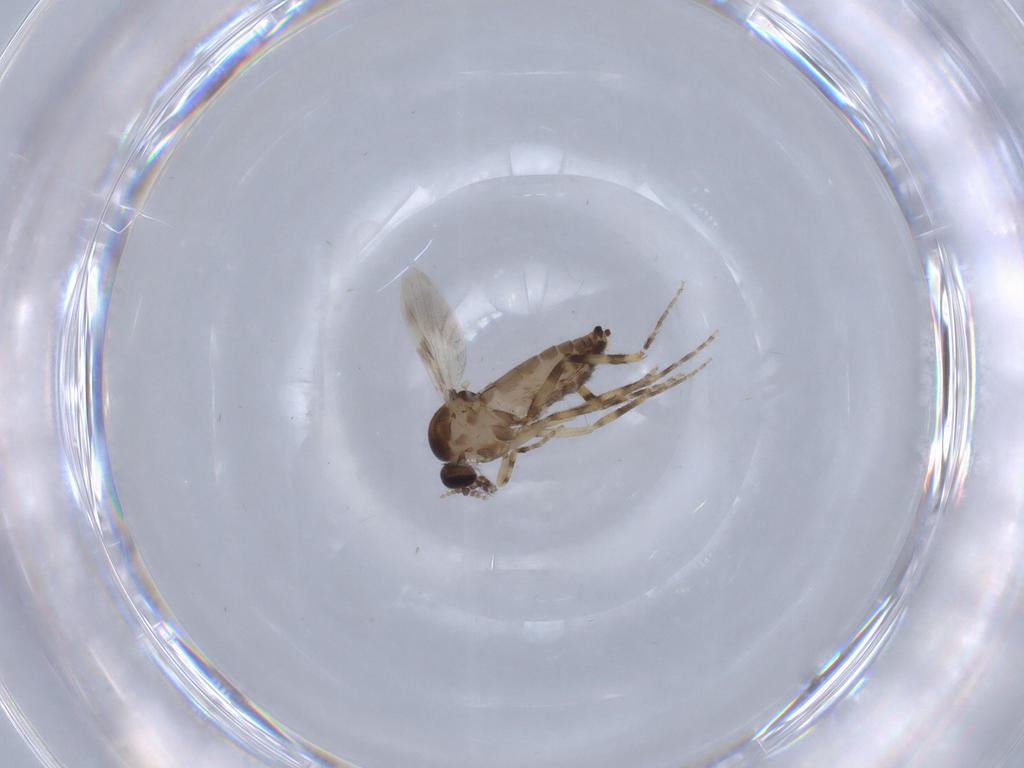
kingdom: Animalia
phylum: Arthropoda
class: Insecta
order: Diptera
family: Ceratopogonidae
